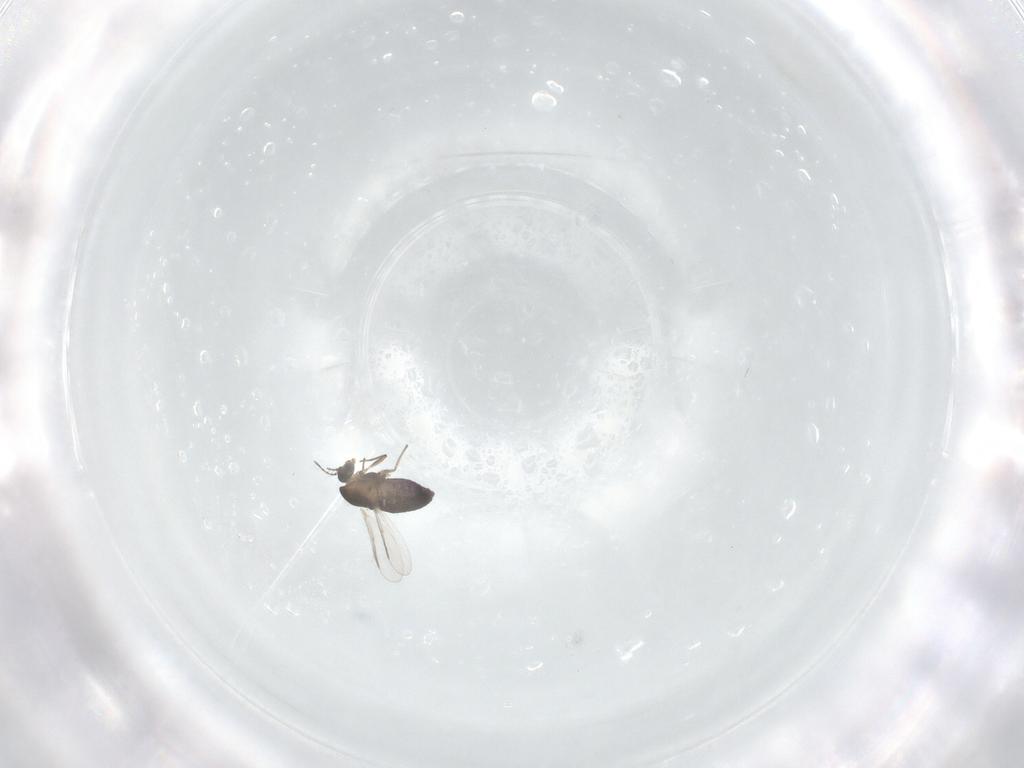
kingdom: Animalia
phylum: Arthropoda
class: Insecta
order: Diptera
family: Chironomidae
